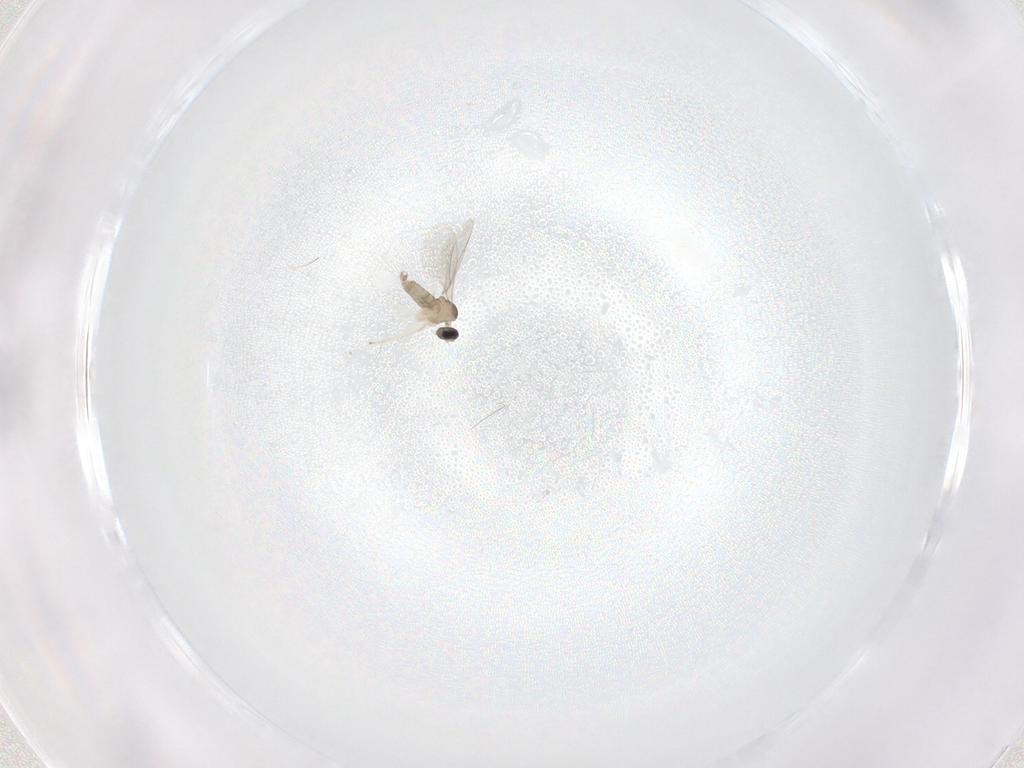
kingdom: Animalia
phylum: Arthropoda
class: Insecta
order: Diptera
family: Cecidomyiidae
